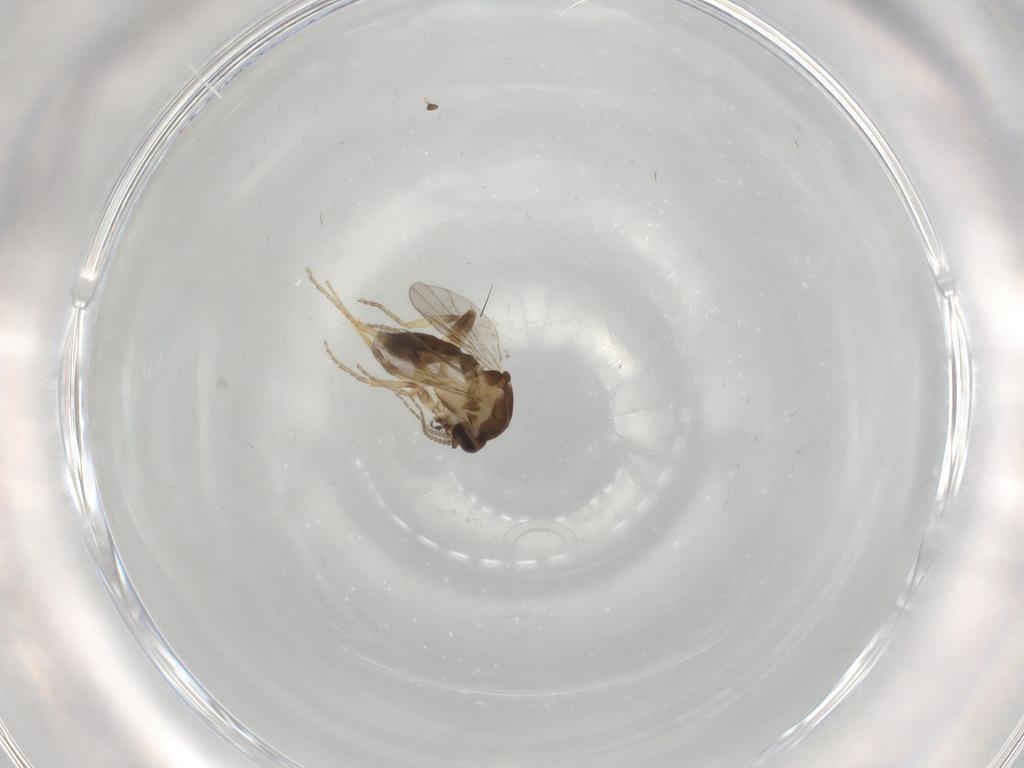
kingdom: Animalia
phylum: Arthropoda
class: Insecta
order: Diptera
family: Ceratopogonidae
